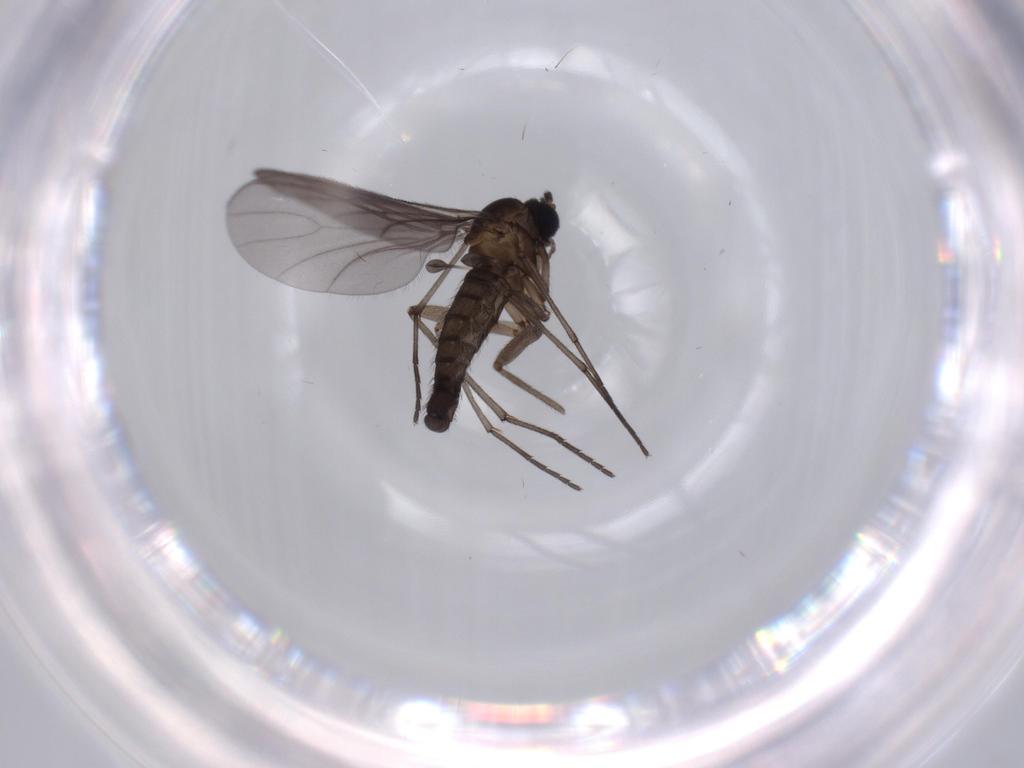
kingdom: Animalia
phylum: Arthropoda
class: Insecta
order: Diptera
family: Sciaridae
